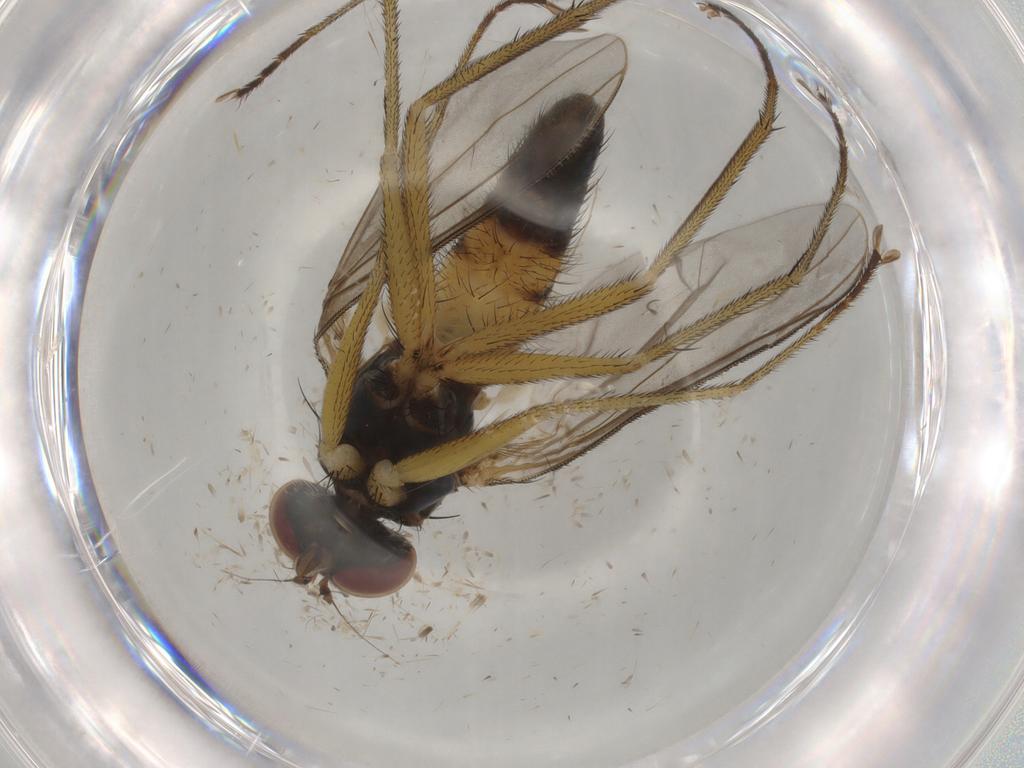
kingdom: Animalia
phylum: Arthropoda
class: Insecta
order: Diptera
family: Dolichopodidae
